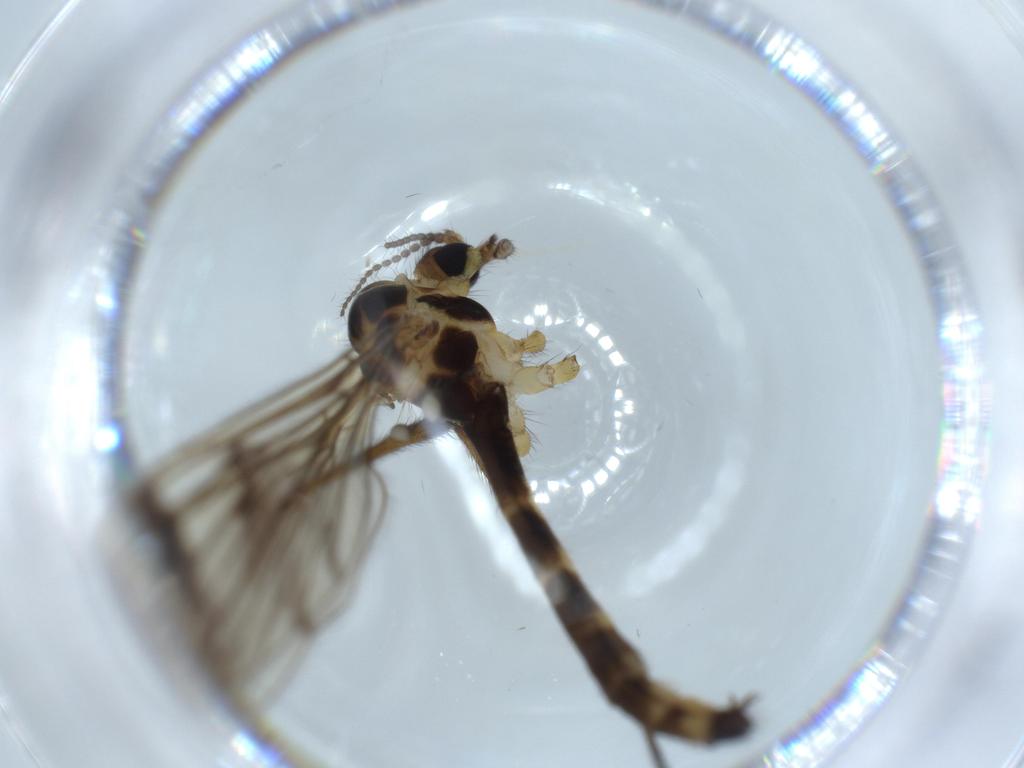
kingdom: Animalia
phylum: Arthropoda
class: Insecta
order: Diptera
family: Limoniidae
